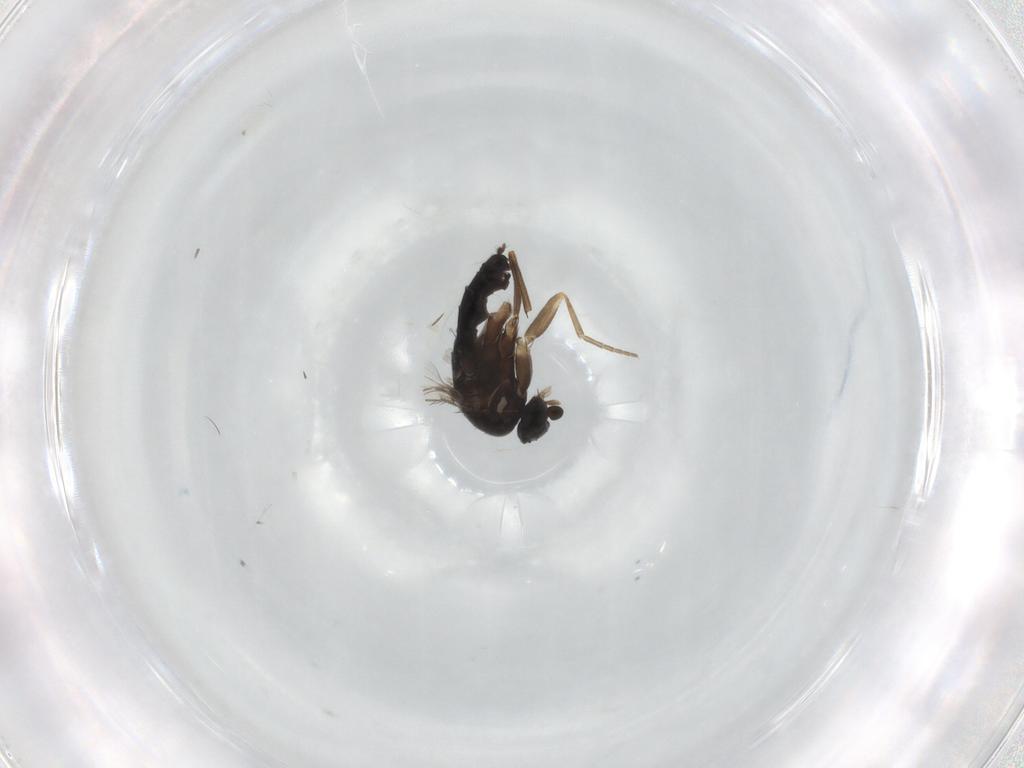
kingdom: Animalia
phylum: Arthropoda
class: Insecta
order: Diptera
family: Phoridae
